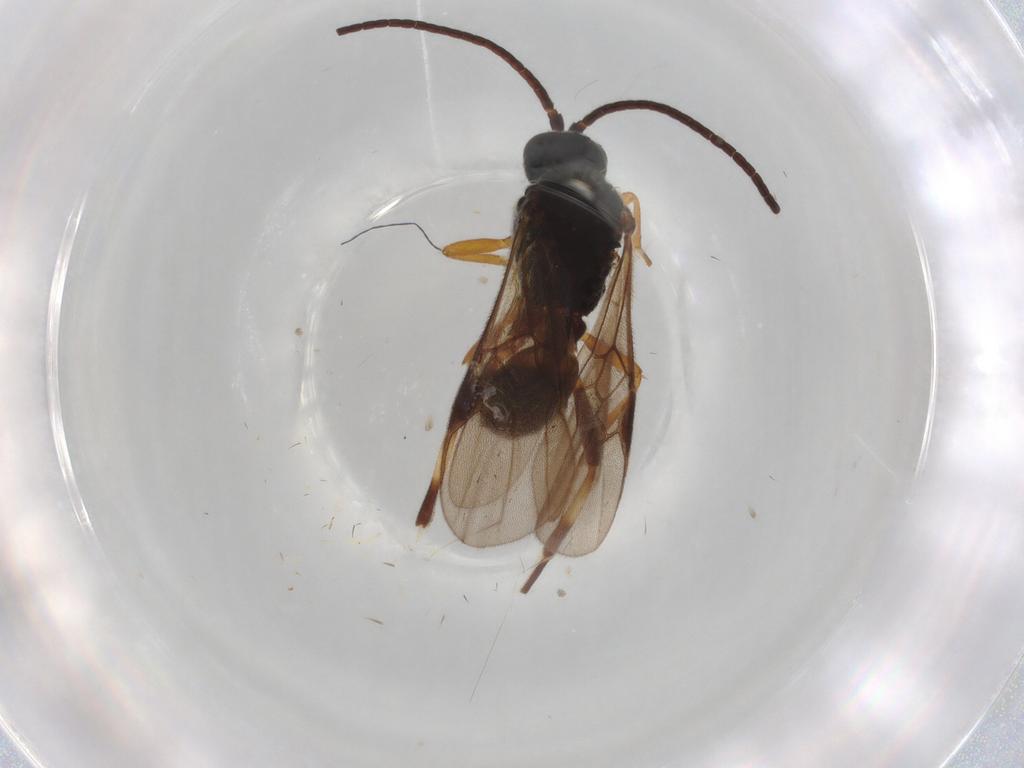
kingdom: Animalia
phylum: Arthropoda
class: Insecta
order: Hymenoptera
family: Braconidae
